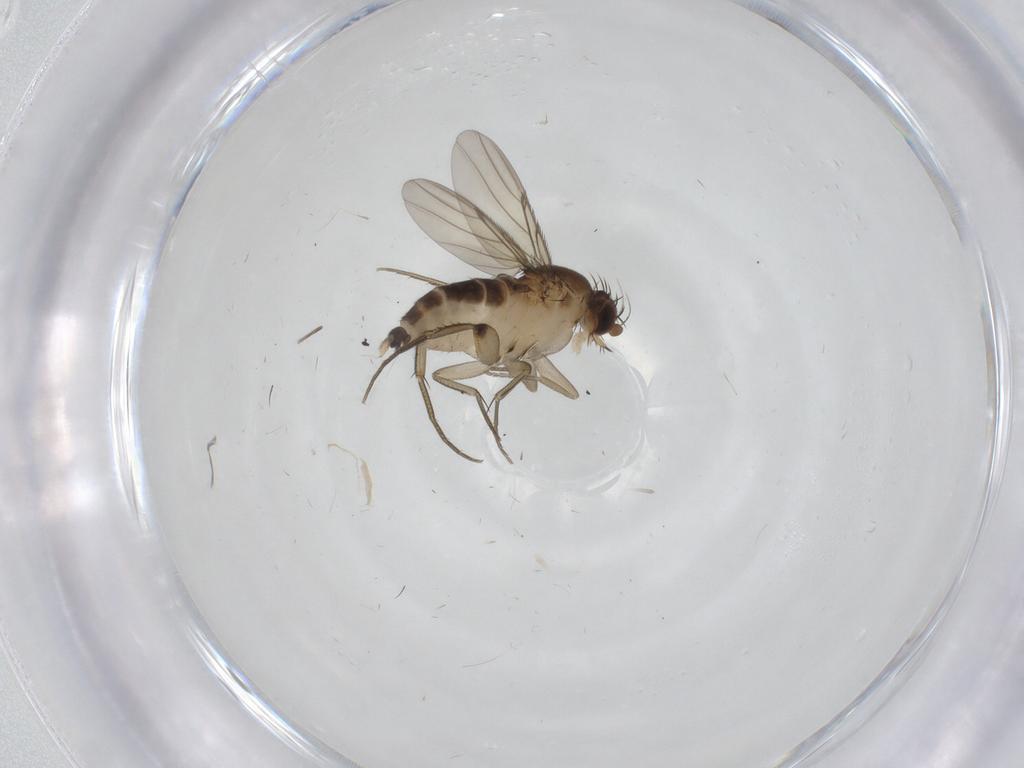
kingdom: Animalia
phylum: Arthropoda
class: Insecta
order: Diptera
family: Phoridae
